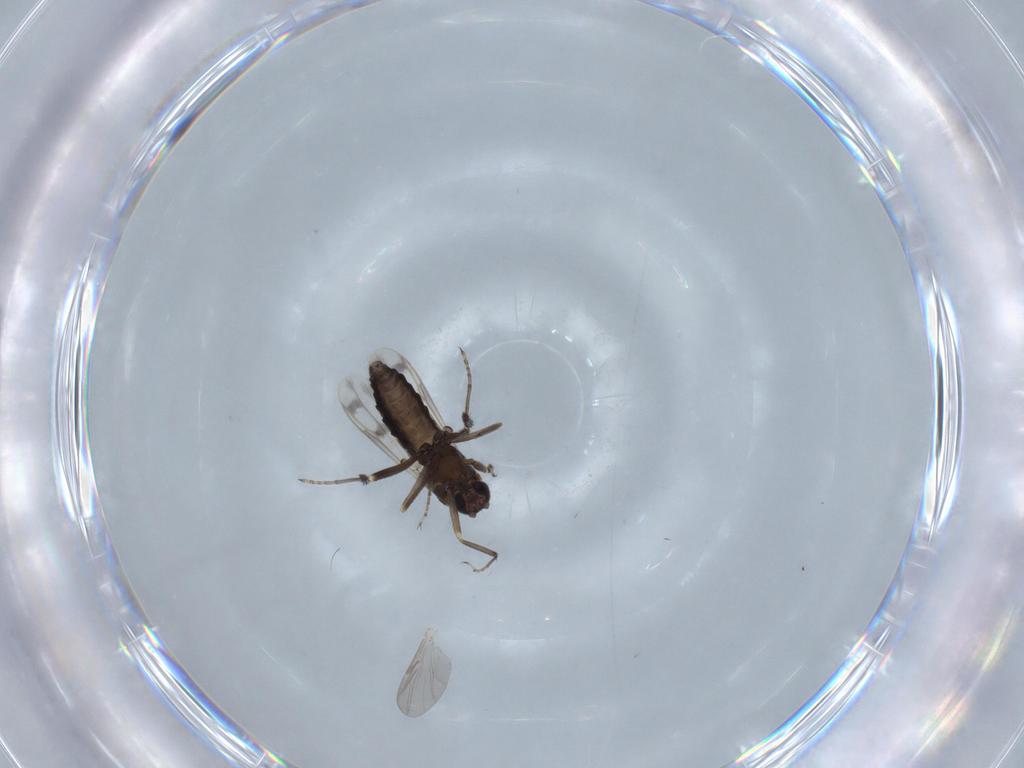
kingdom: Animalia
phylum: Arthropoda
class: Insecta
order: Diptera
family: Ceratopogonidae
